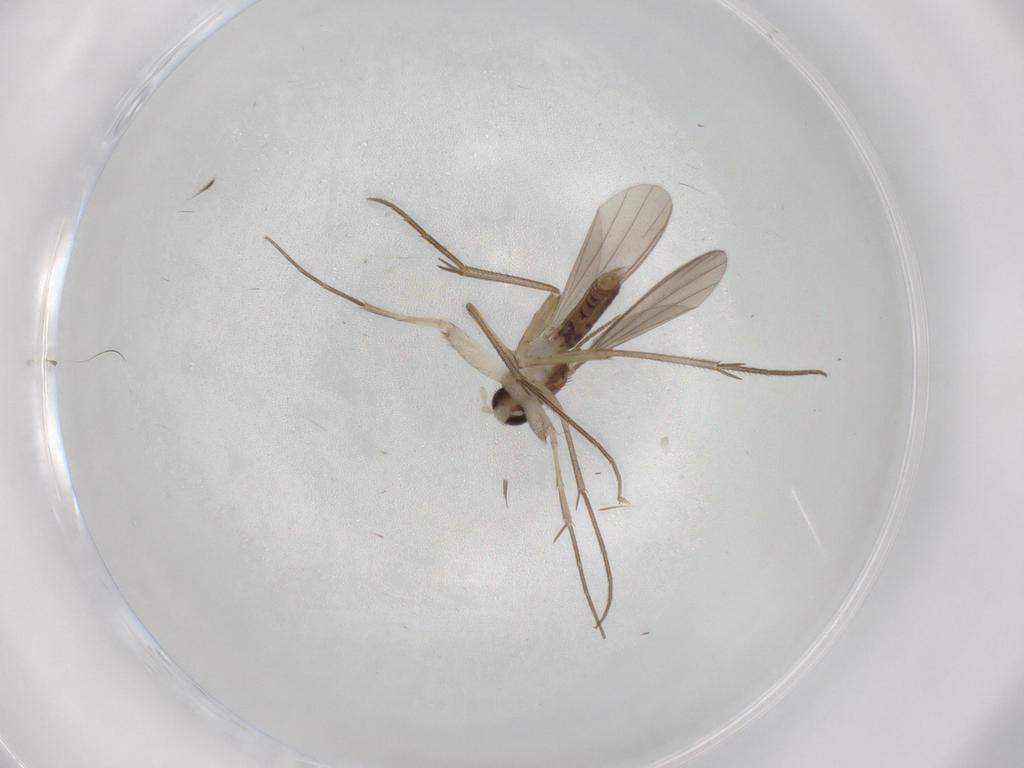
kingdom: Animalia
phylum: Arthropoda
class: Insecta
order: Diptera
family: Mycetophilidae
